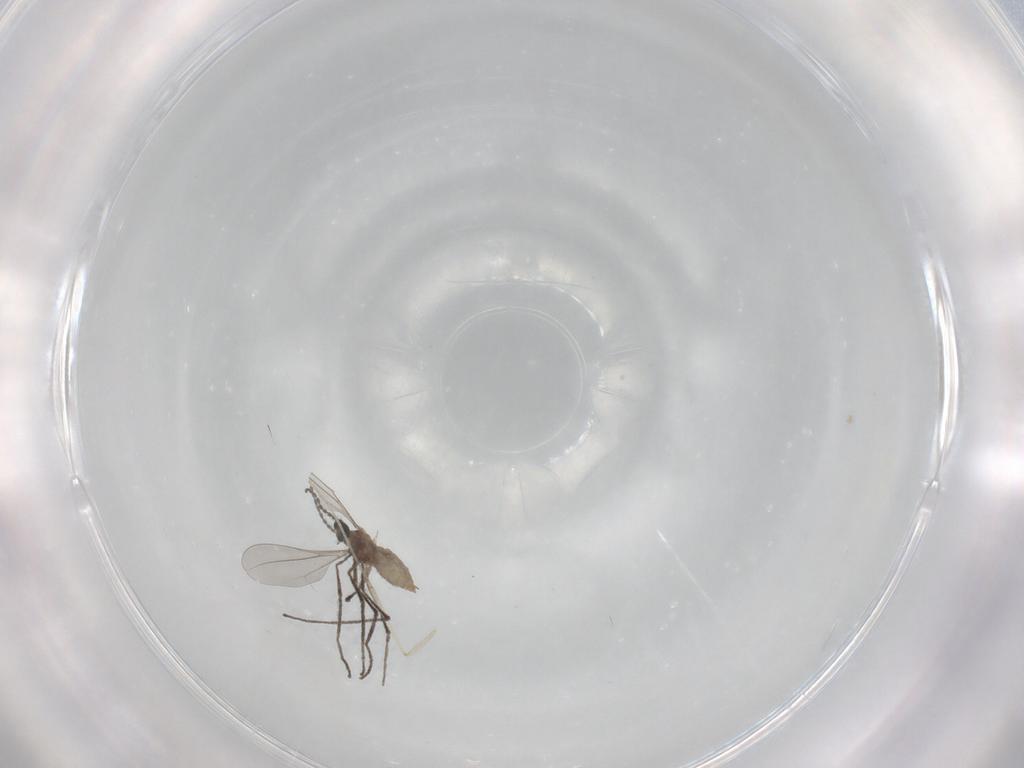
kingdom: Animalia
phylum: Arthropoda
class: Insecta
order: Diptera
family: Cecidomyiidae
